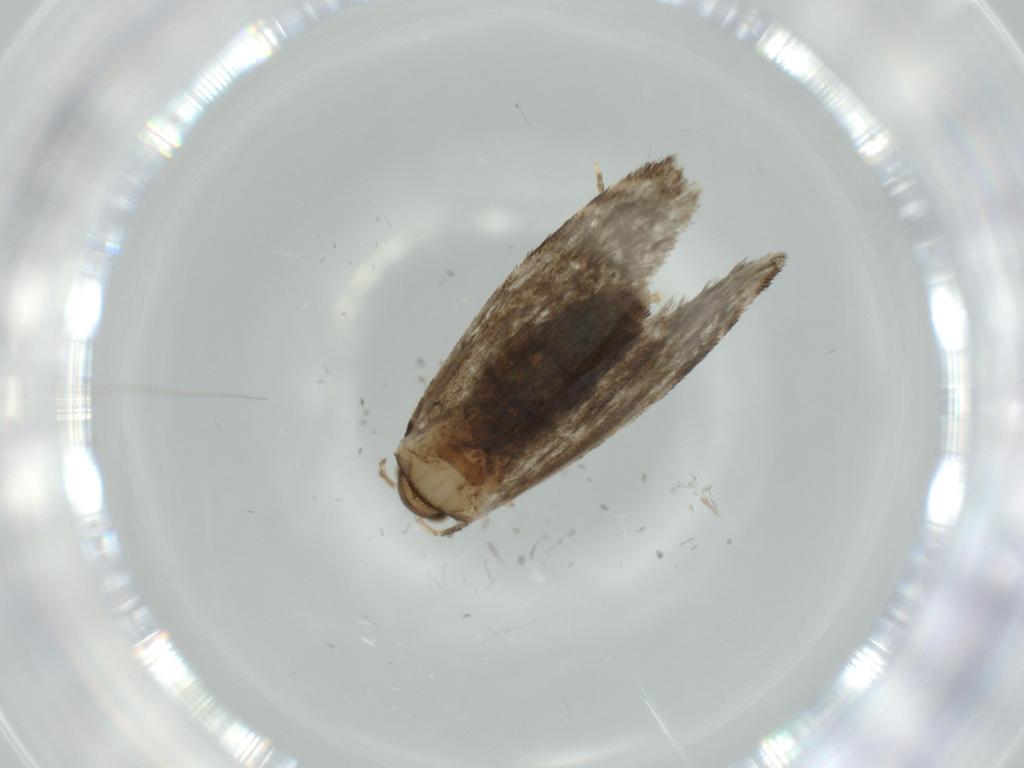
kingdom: Animalia
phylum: Arthropoda
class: Insecta
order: Lepidoptera
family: Tineidae
